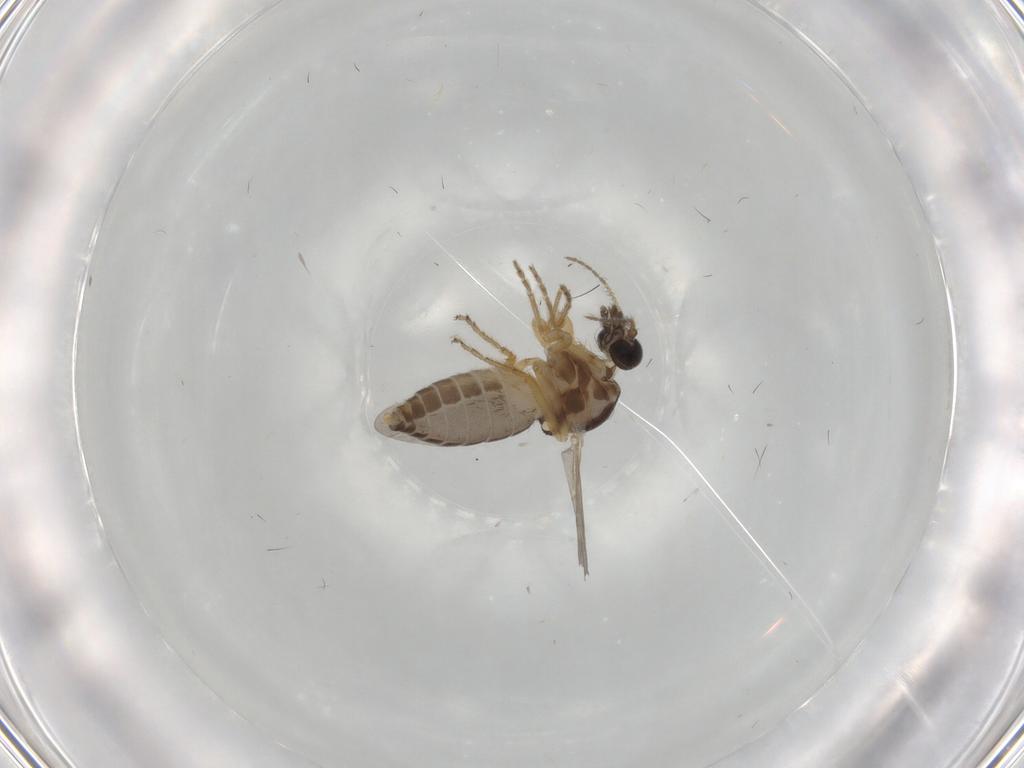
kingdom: Animalia
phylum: Arthropoda
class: Insecta
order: Diptera
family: Ceratopogonidae
